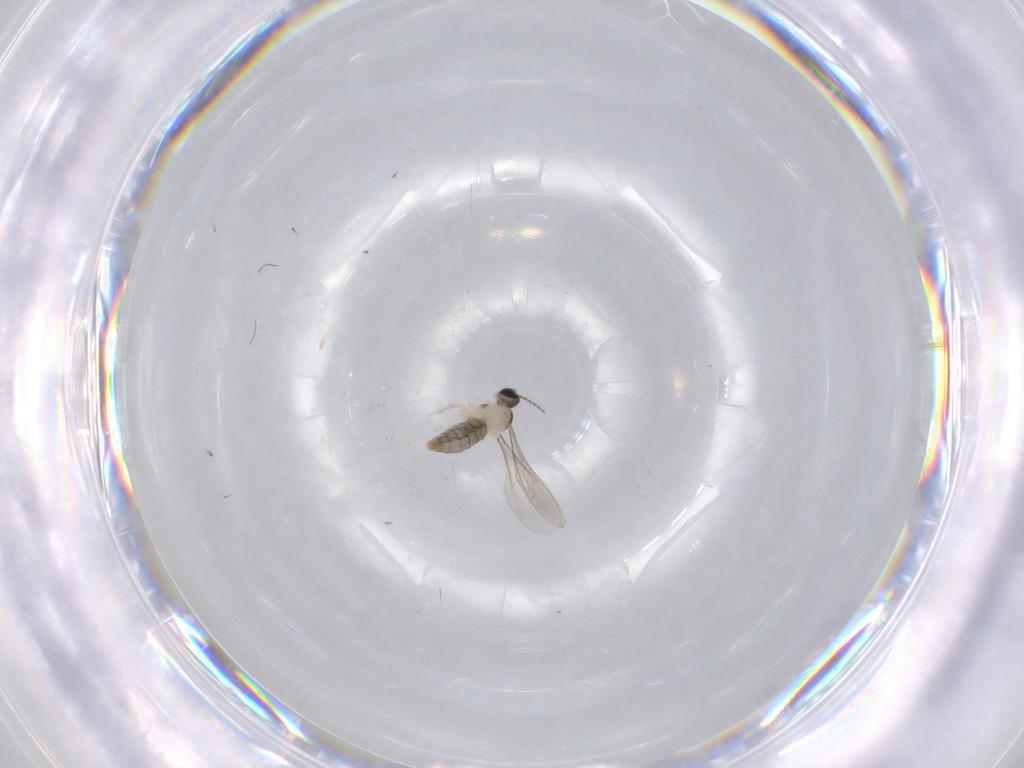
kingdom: Animalia
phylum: Arthropoda
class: Insecta
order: Diptera
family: Sciaridae
